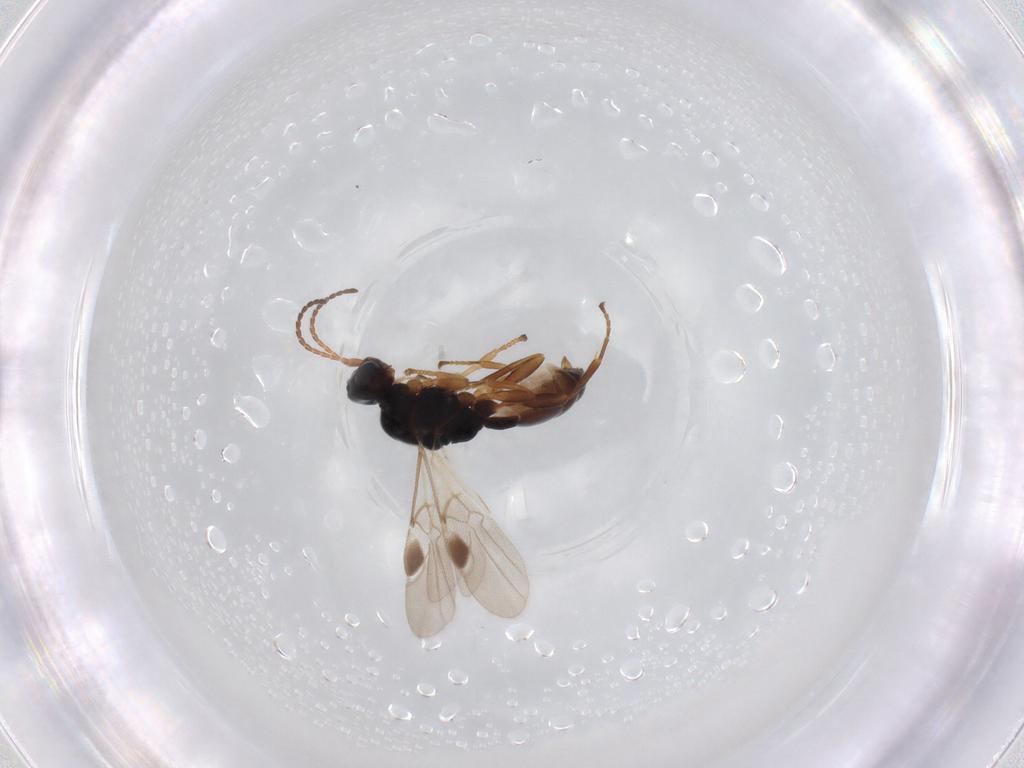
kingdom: Animalia
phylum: Arthropoda
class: Insecta
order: Hymenoptera
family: Braconidae
